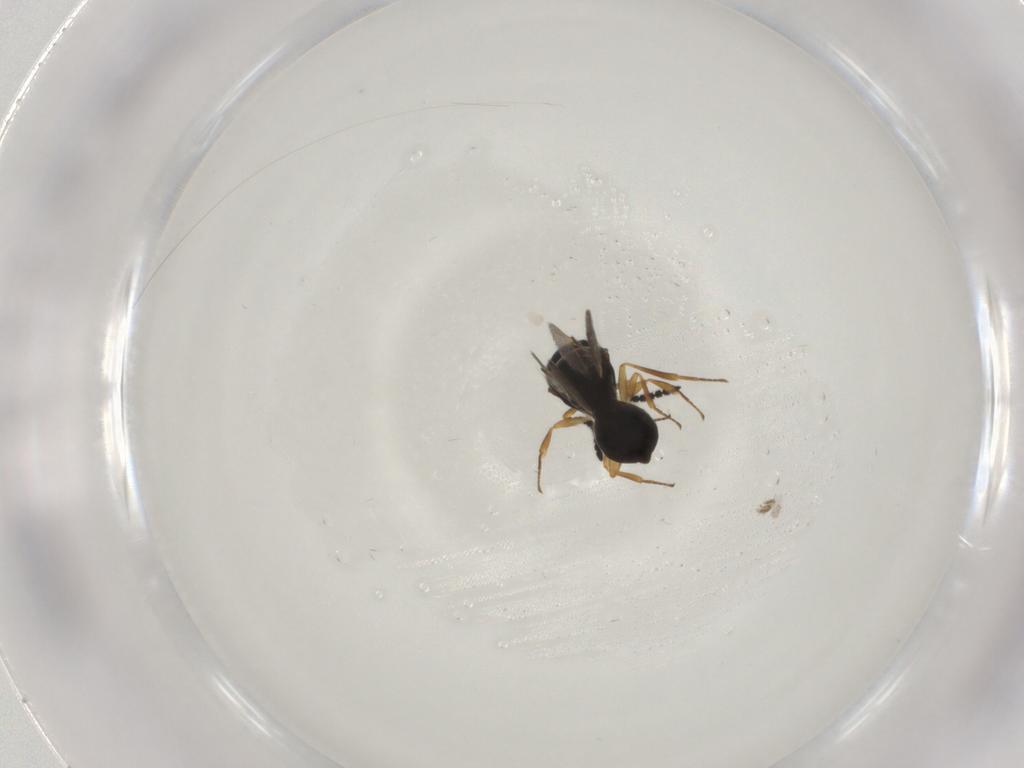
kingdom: Animalia
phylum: Arthropoda
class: Insecta
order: Hymenoptera
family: Scelionidae
